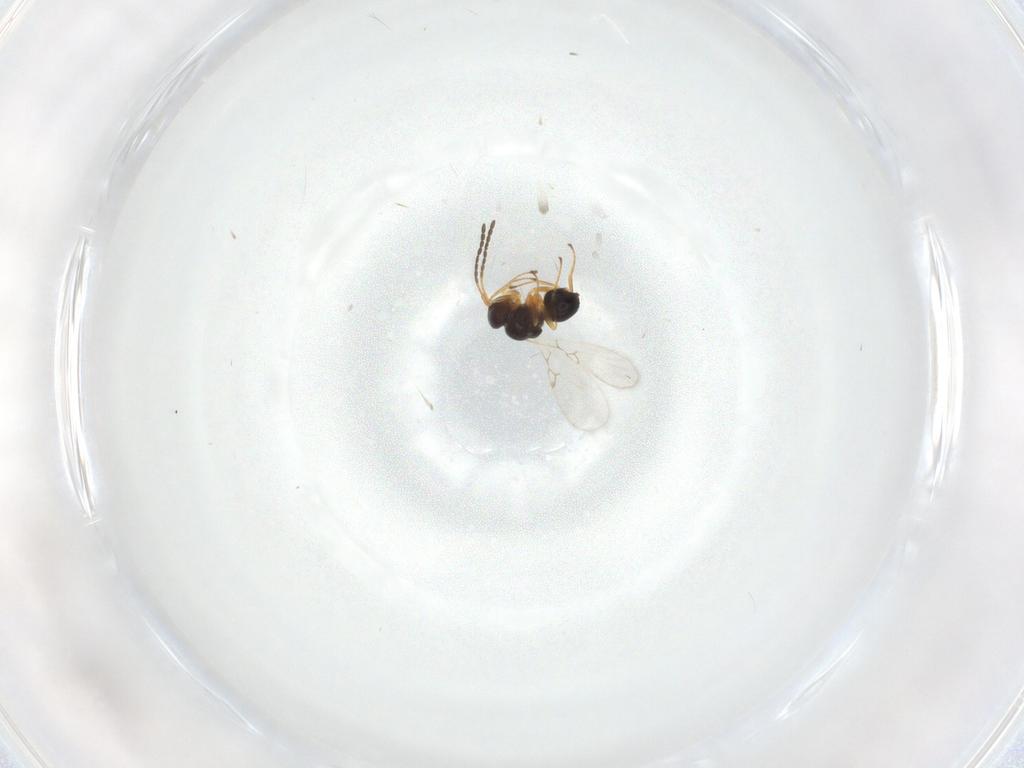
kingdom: Animalia
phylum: Arthropoda
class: Insecta
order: Hymenoptera
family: Figitidae
